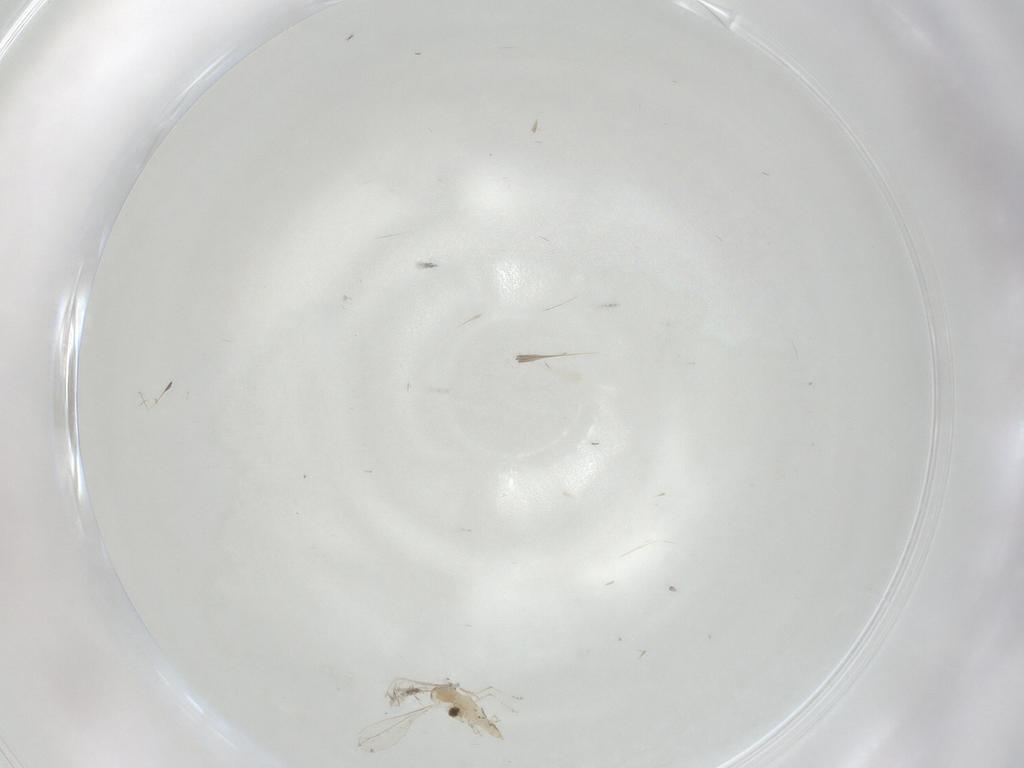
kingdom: Animalia
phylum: Arthropoda
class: Insecta
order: Diptera
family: Cecidomyiidae
